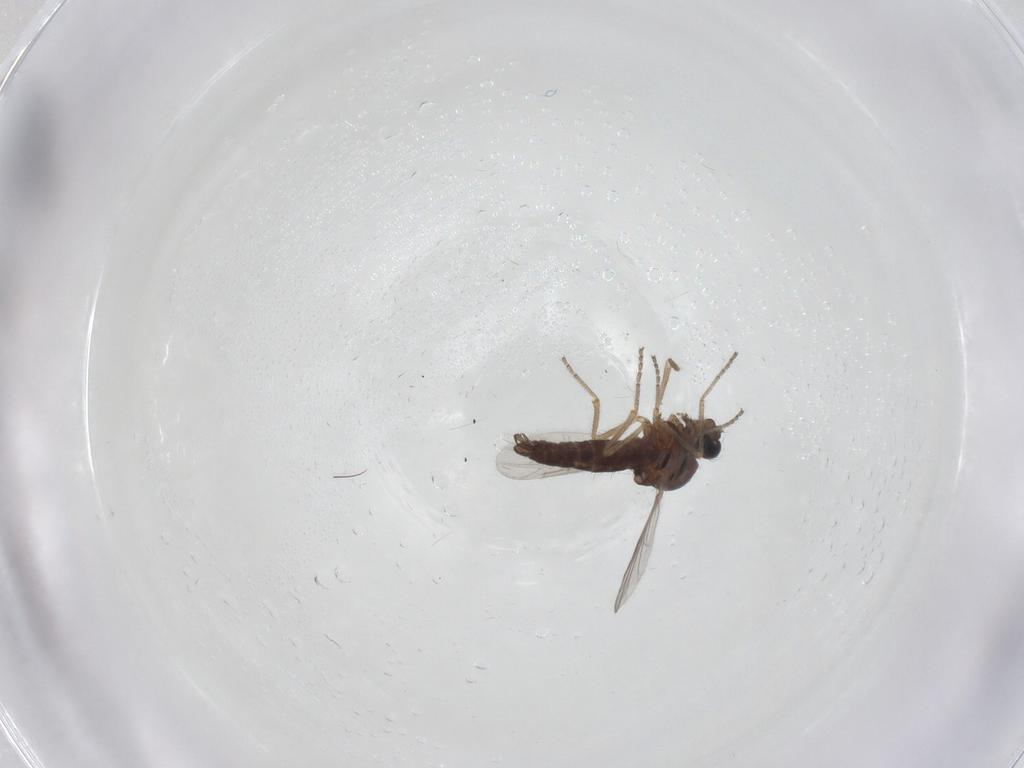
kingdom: Animalia
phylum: Arthropoda
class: Insecta
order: Diptera
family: Ceratopogonidae
